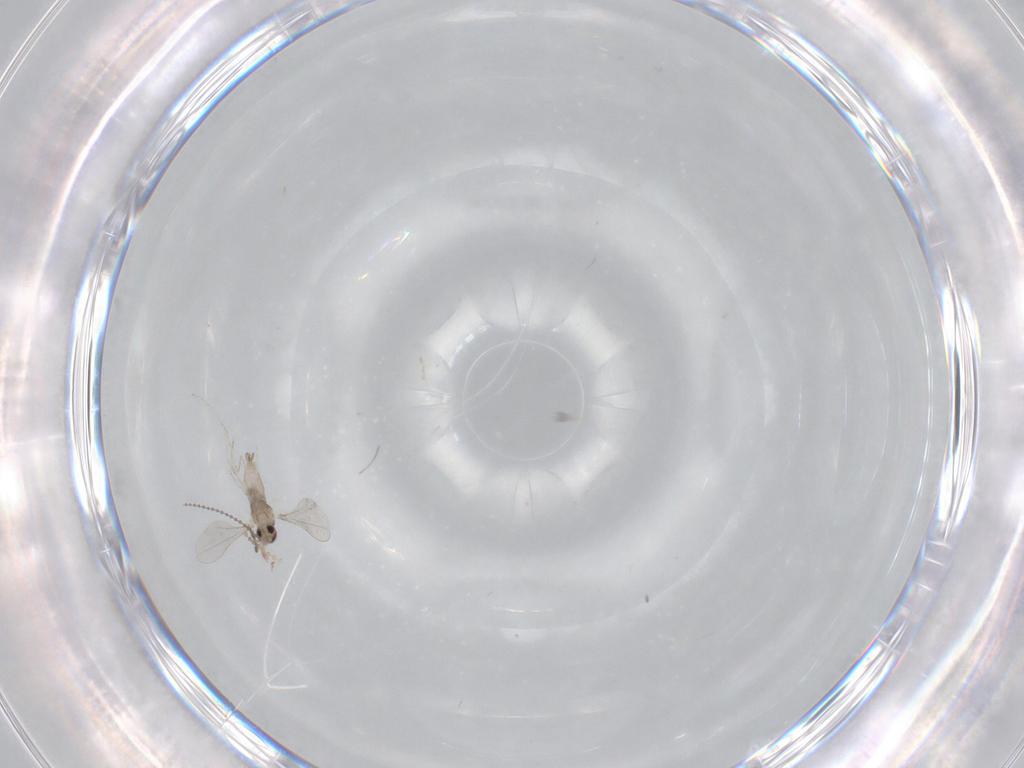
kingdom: Animalia
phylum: Arthropoda
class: Insecta
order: Diptera
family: Cecidomyiidae
